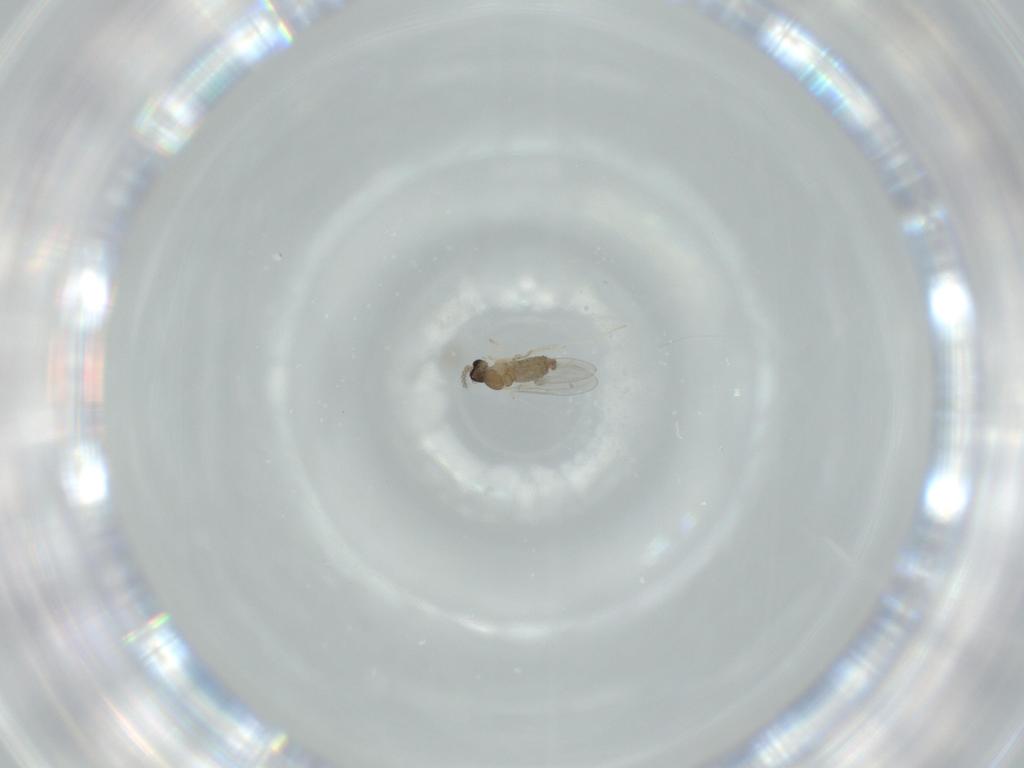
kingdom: Animalia
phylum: Arthropoda
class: Insecta
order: Diptera
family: Cecidomyiidae
